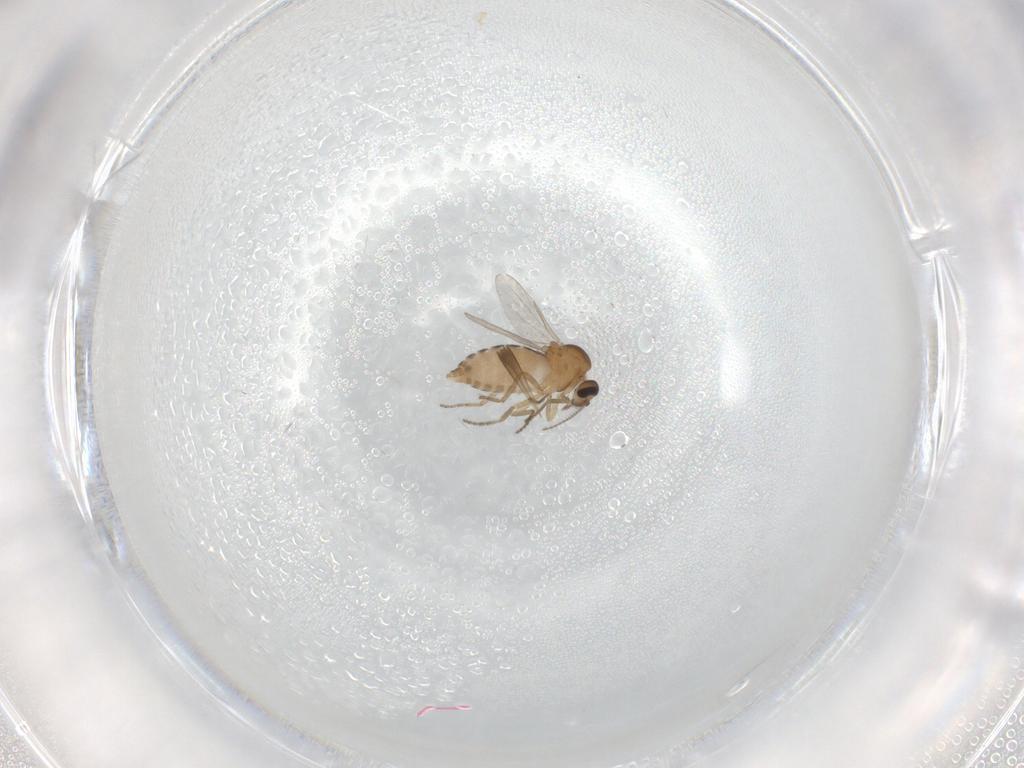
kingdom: Animalia
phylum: Arthropoda
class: Insecta
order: Diptera
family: Psychodidae
